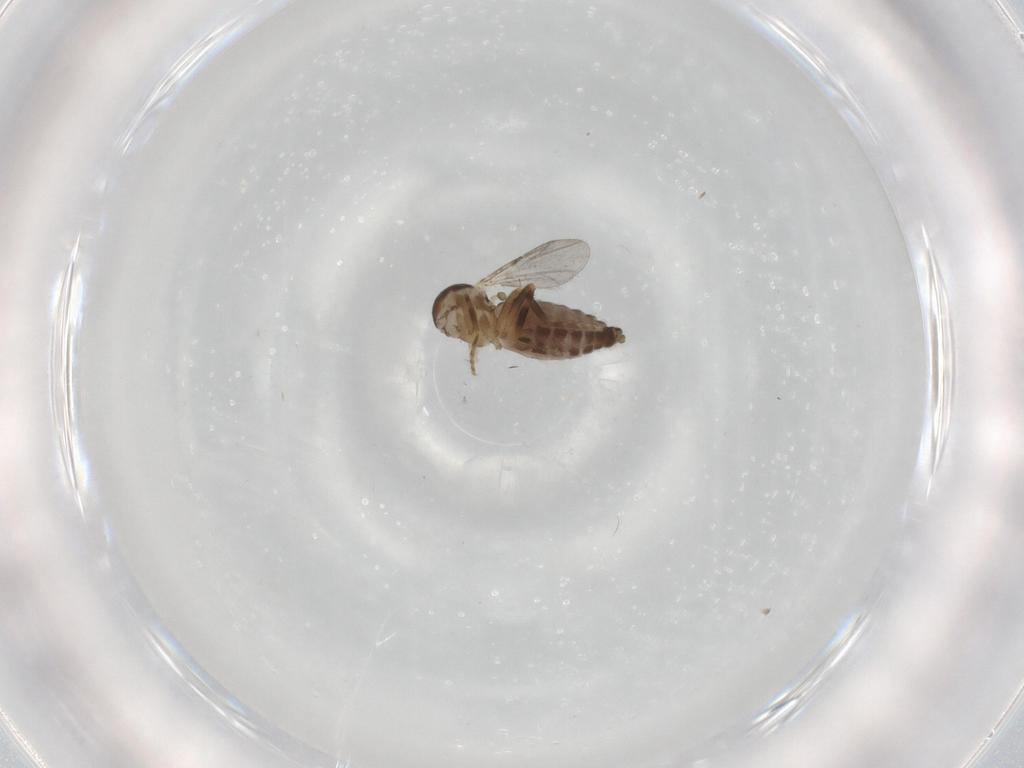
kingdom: Animalia
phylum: Arthropoda
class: Insecta
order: Diptera
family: Ceratopogonidae
